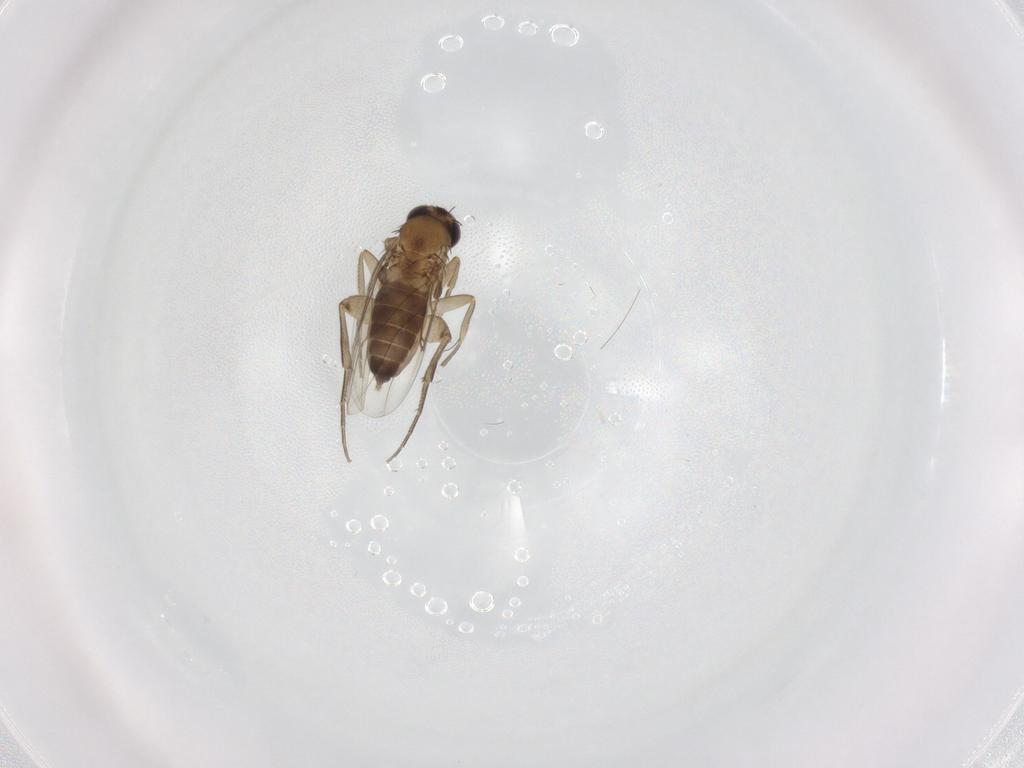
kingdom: Animalia
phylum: Arthropoda
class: Insecta
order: Diptera
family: Phoridae
